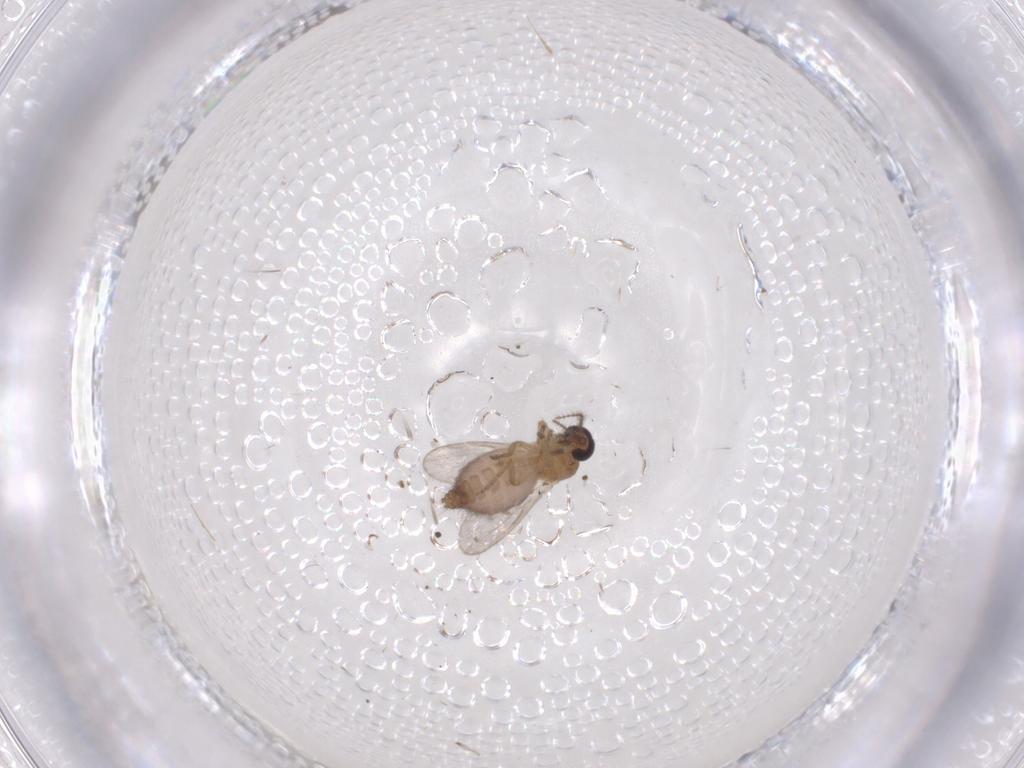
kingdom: Animalia
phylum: Arthropoda
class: Insecta
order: Diptera
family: Ceratopogonidae
